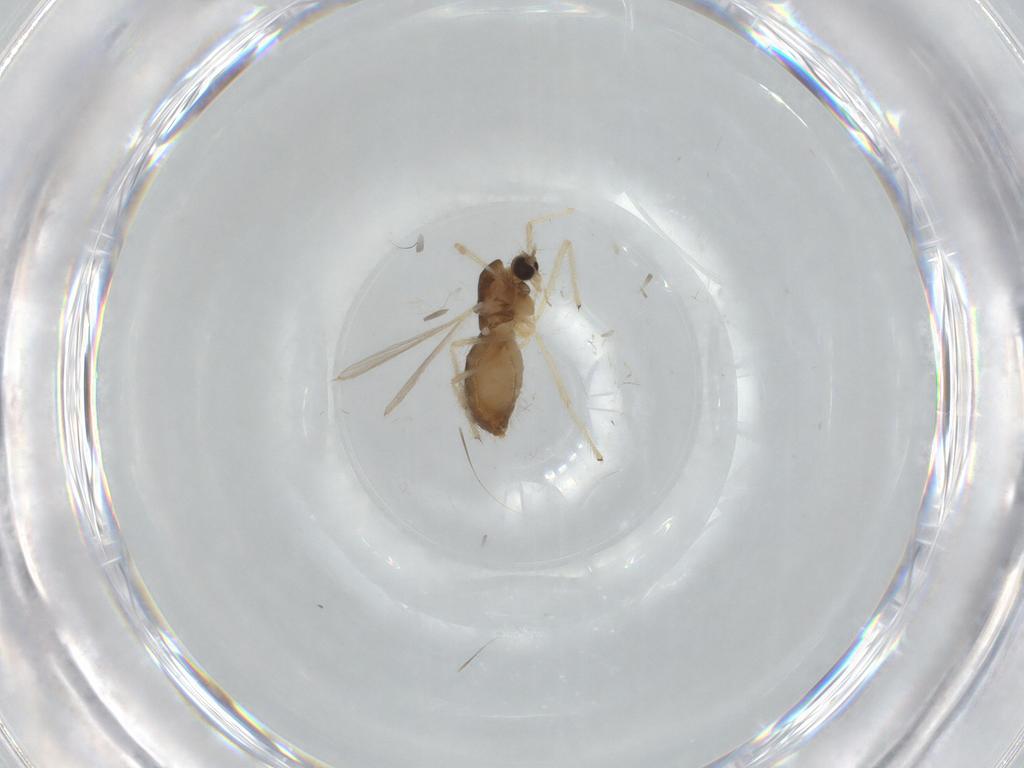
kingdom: Animalia
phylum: Arthropoda
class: Insecta
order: Diptera
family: Chironomidae
